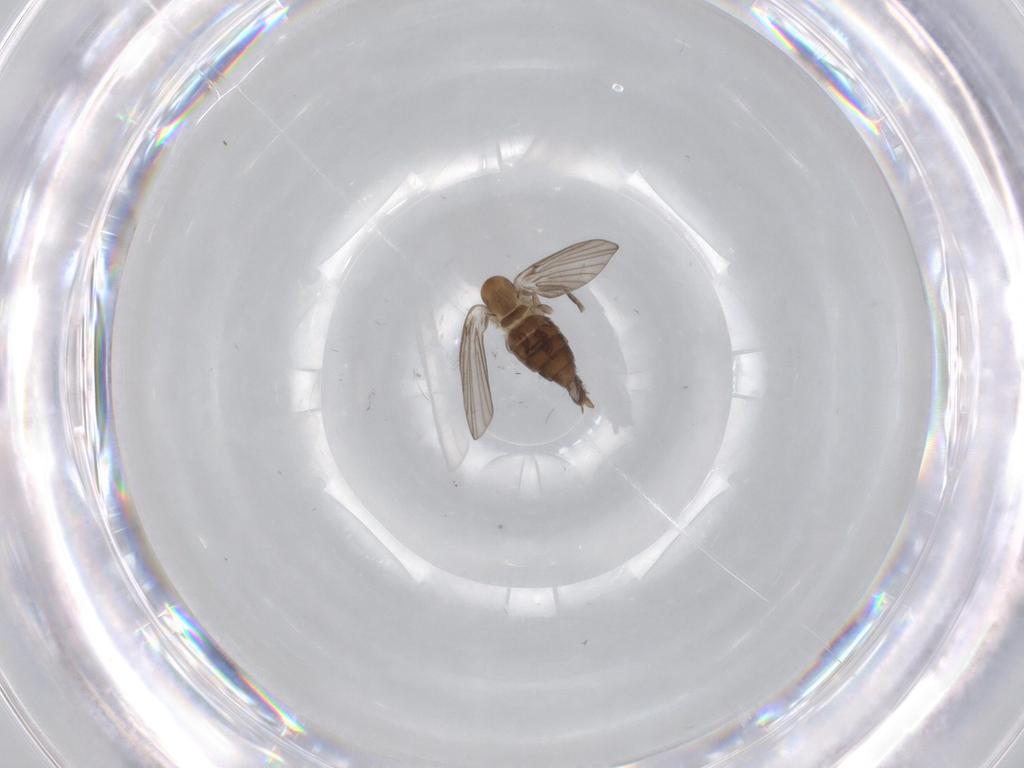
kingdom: Animalia
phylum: Arthropoda
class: Insecta
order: Diptera
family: Psychodidae
